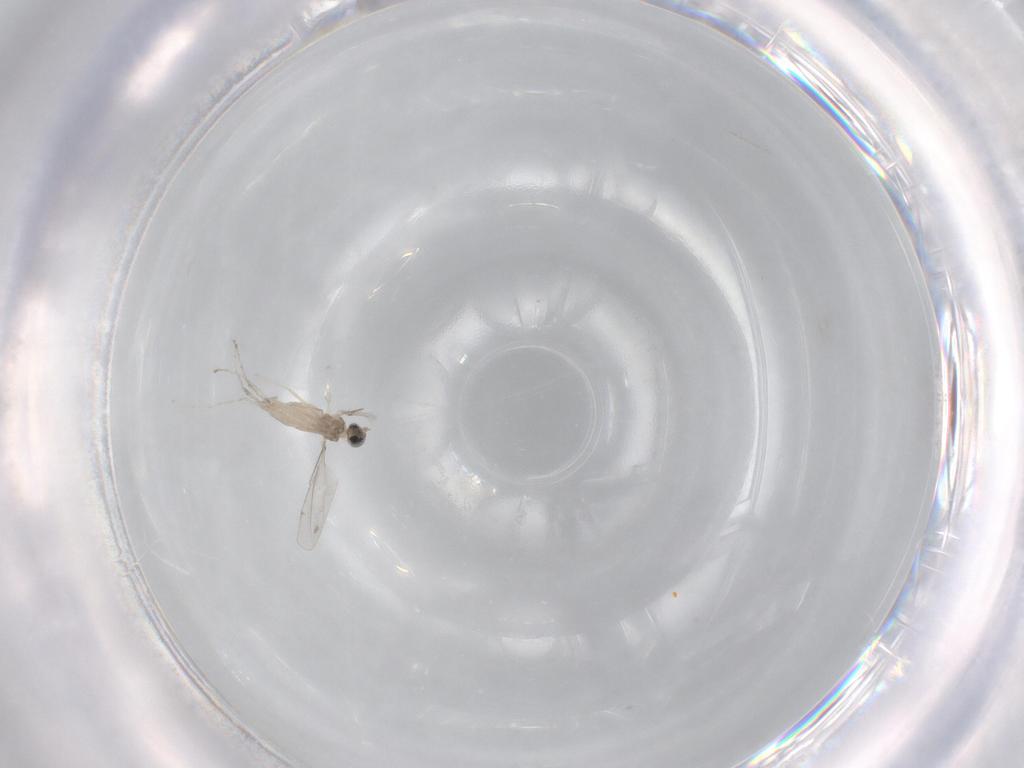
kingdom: Animalia
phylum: Arthropoda
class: Insecta
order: Diptera
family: Cecidomyiidae
